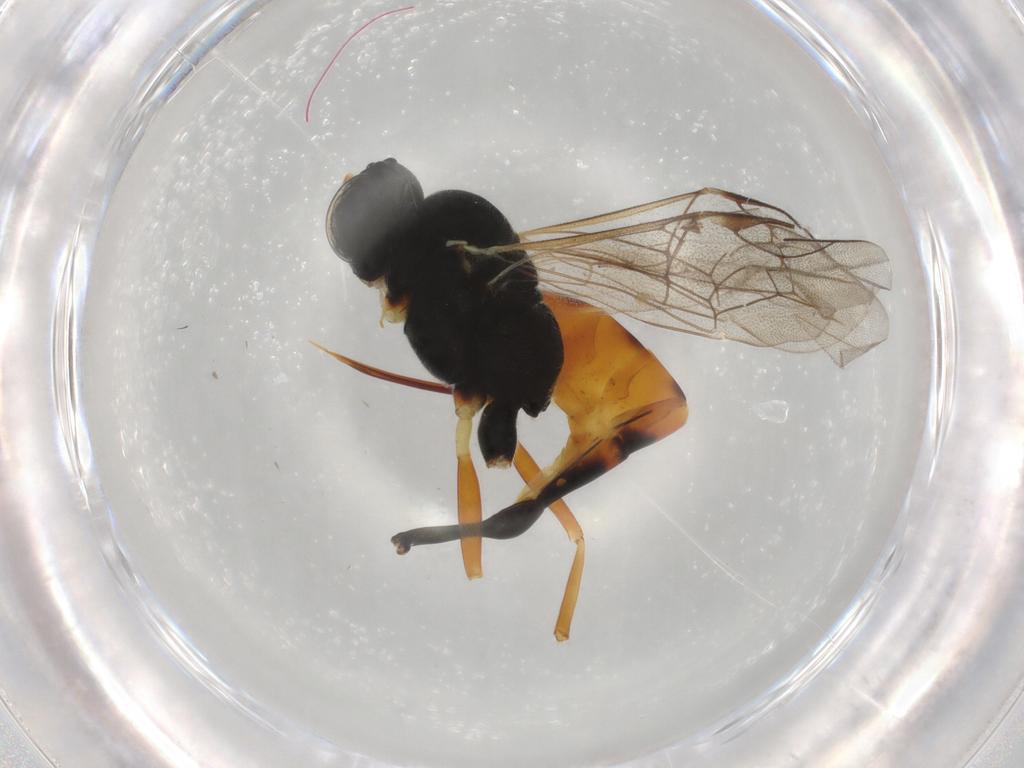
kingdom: Animalia
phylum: Arthropoda
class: Insecta
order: Hymenoptera
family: Ichneumonidae
